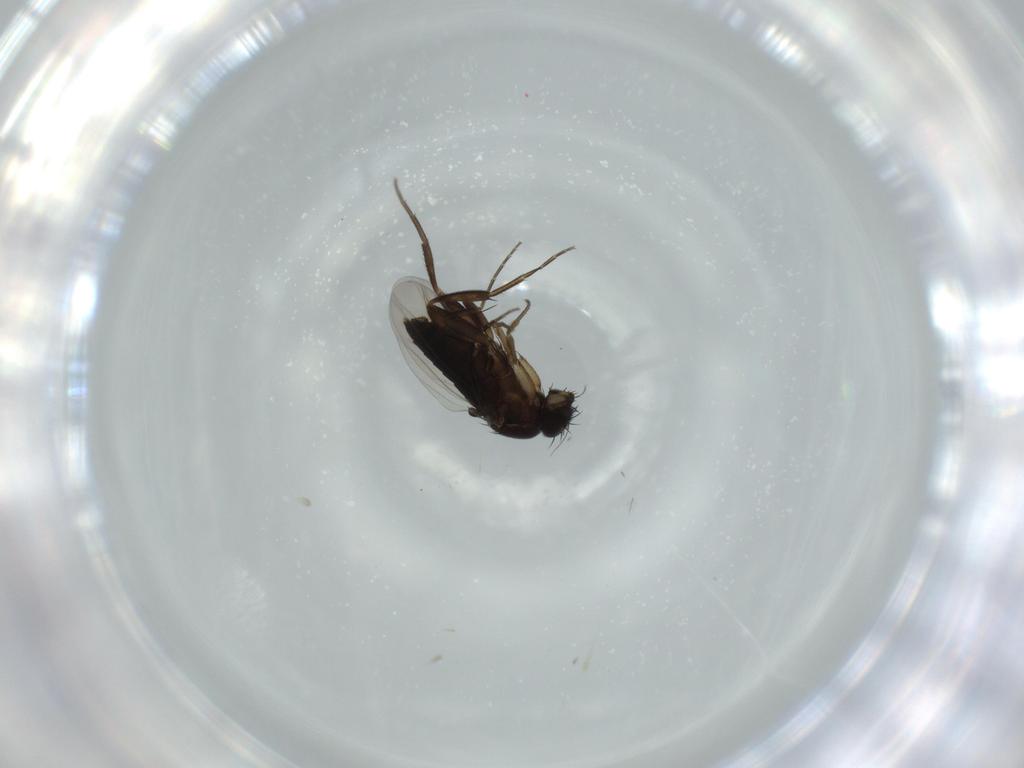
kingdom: Animalia
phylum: Arthropoda
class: Insecta
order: Diptera
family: Phoridae
